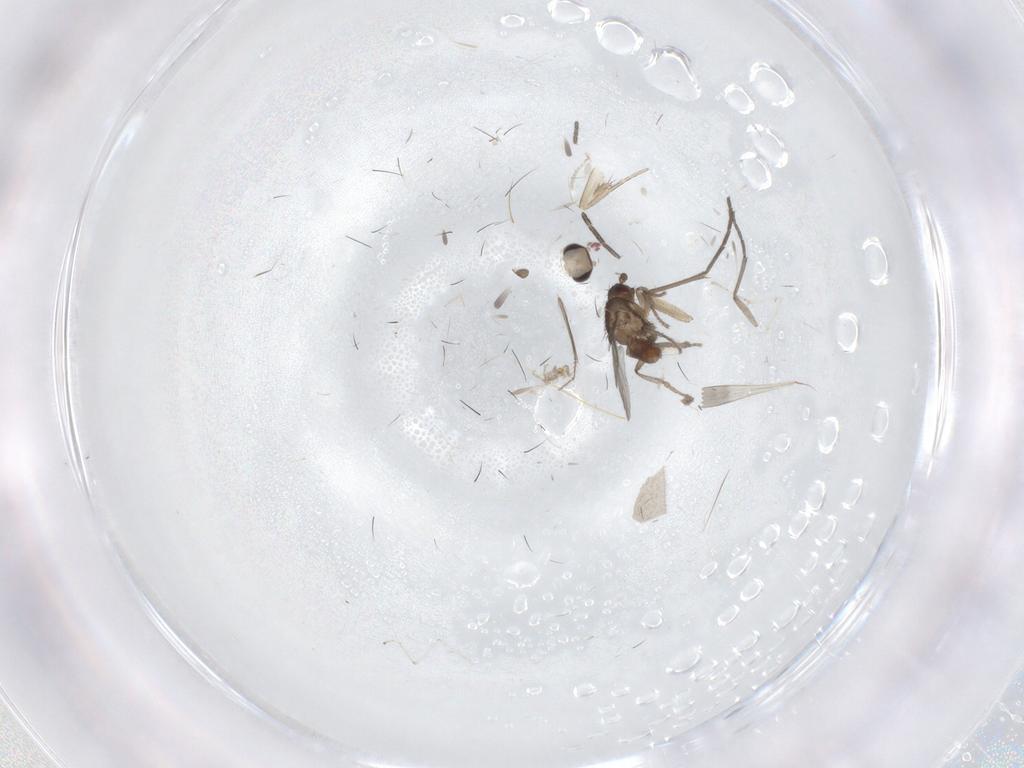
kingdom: Animalia
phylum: Arthropoda
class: Insecta
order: Diptera
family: Cecidomyiidae
